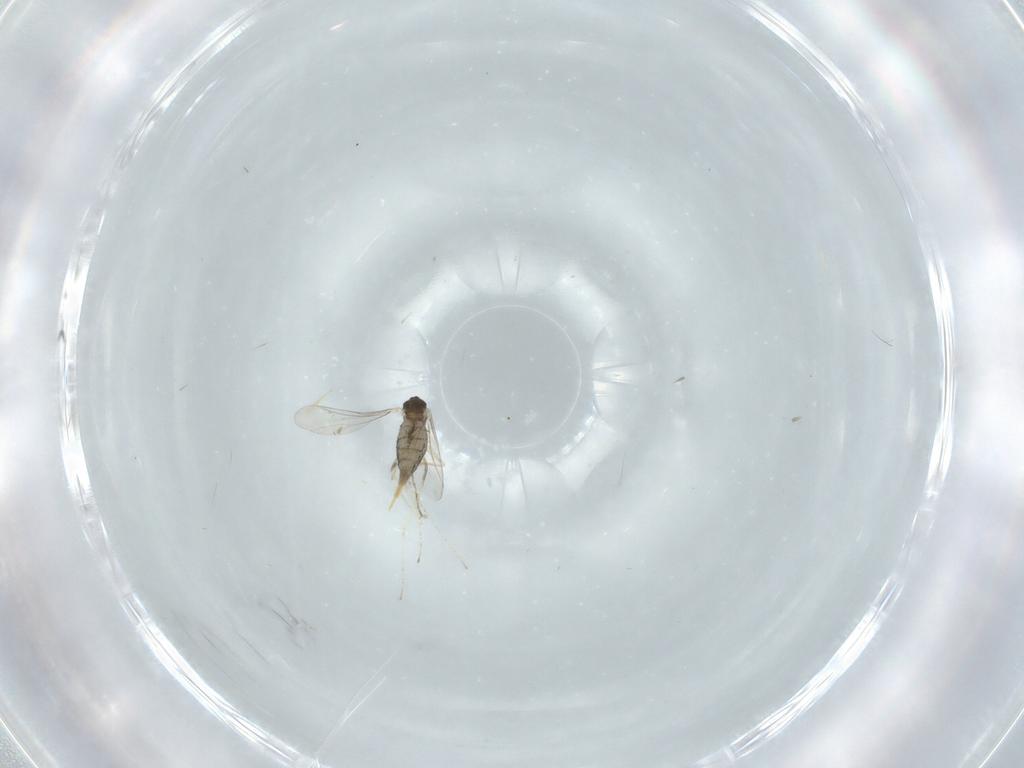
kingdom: Animalia
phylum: Arthropoda
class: Insecta
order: Diptera
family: Cecidomyiidae
